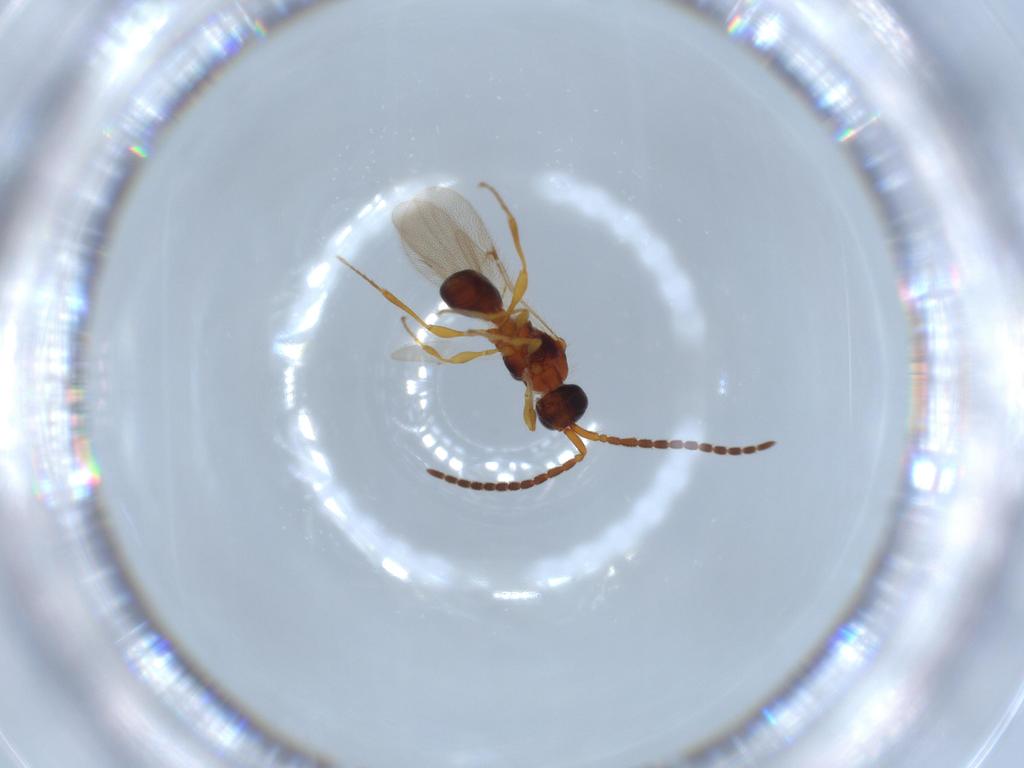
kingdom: Animalia
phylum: Arthropoda
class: Insecta
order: Hymenoptera
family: Diapriidae
